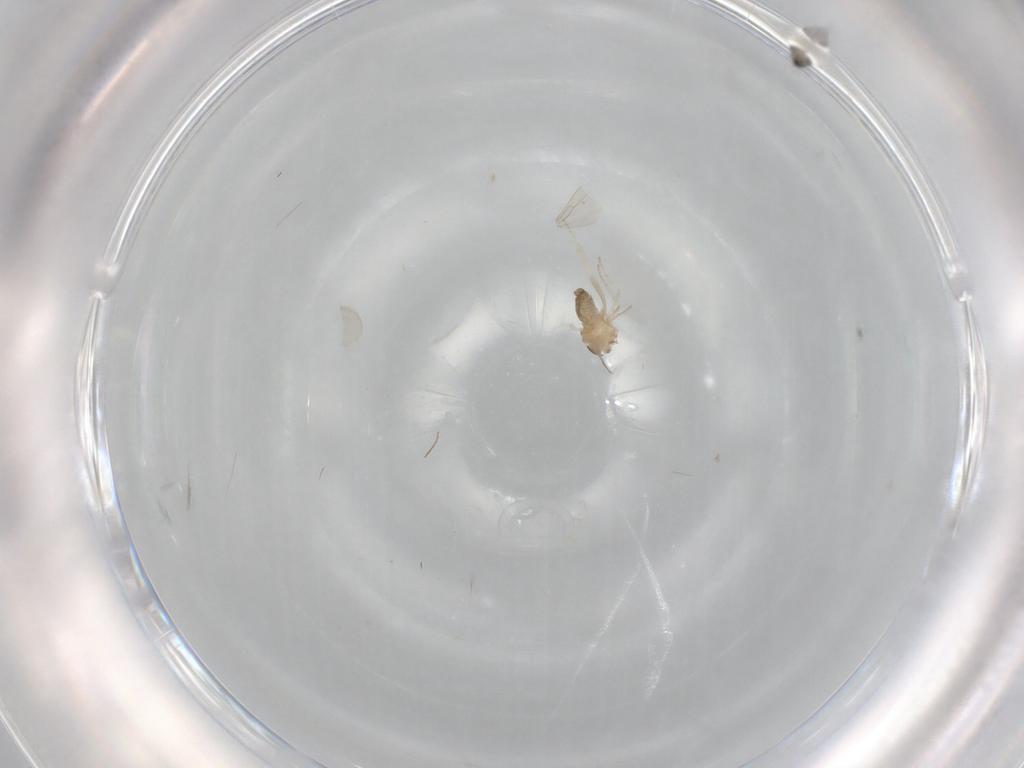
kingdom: Animalia
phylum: Arthropoda
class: Insecta
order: Diptera
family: Cecidomyiidae
